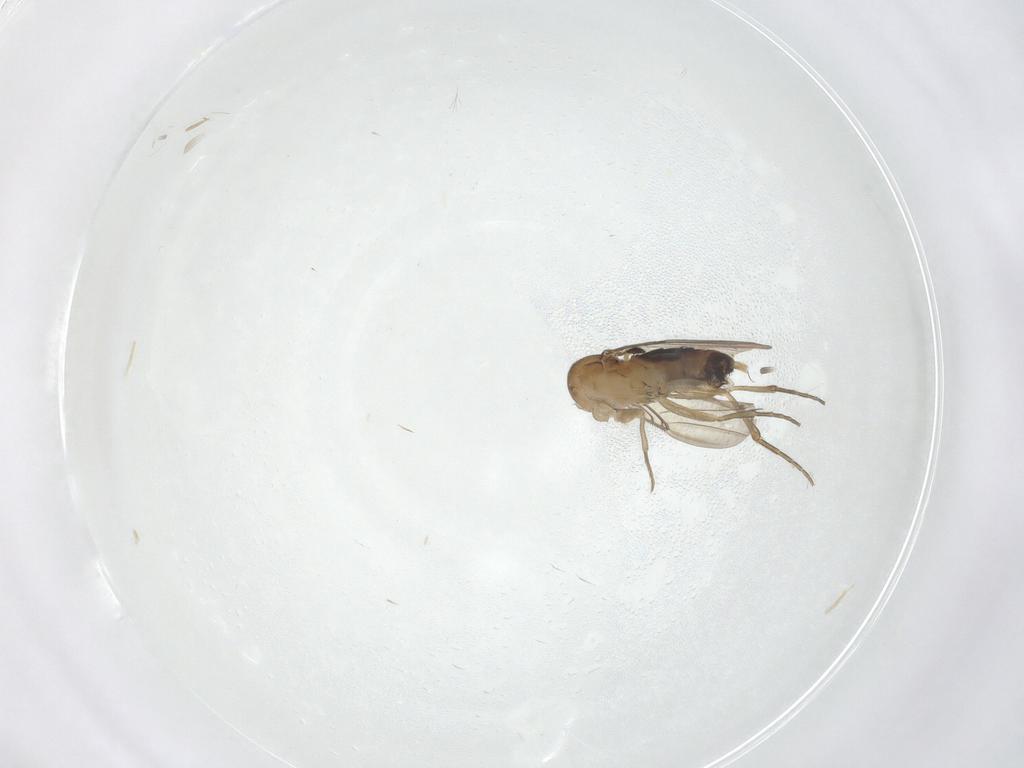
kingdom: Animalia
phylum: Arthropoda
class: Insecta
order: Diptera
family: Phoridae
